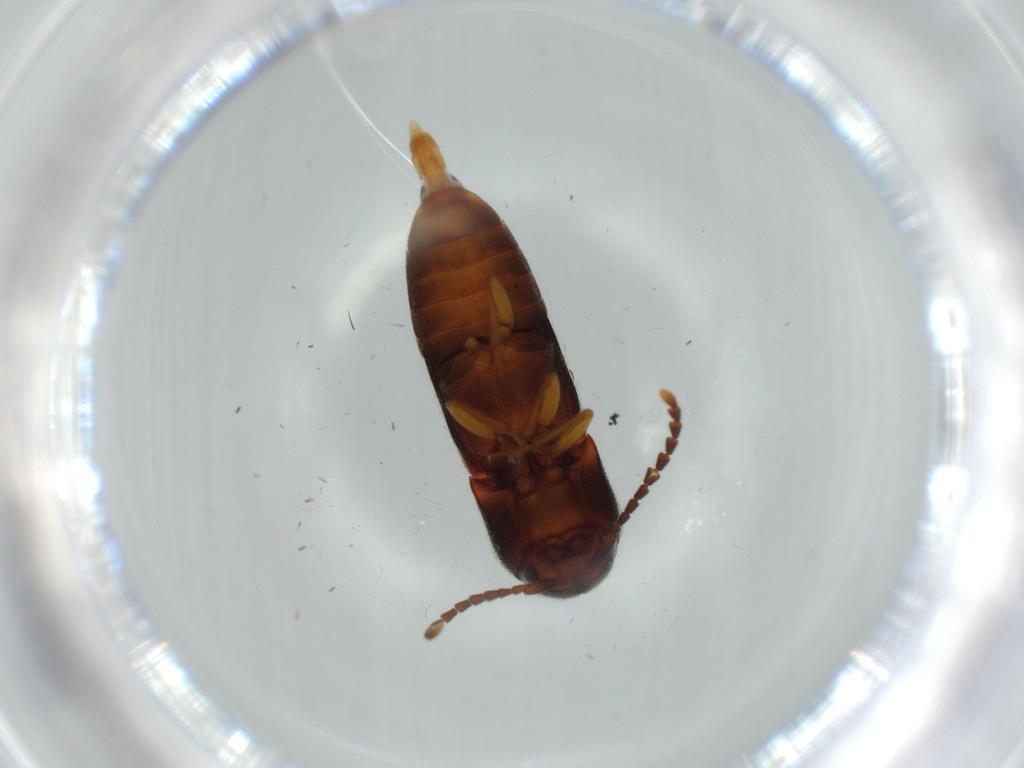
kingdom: Animalia
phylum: Arthropoda
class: Insecta
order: Coleoptera
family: Eucnemidae
